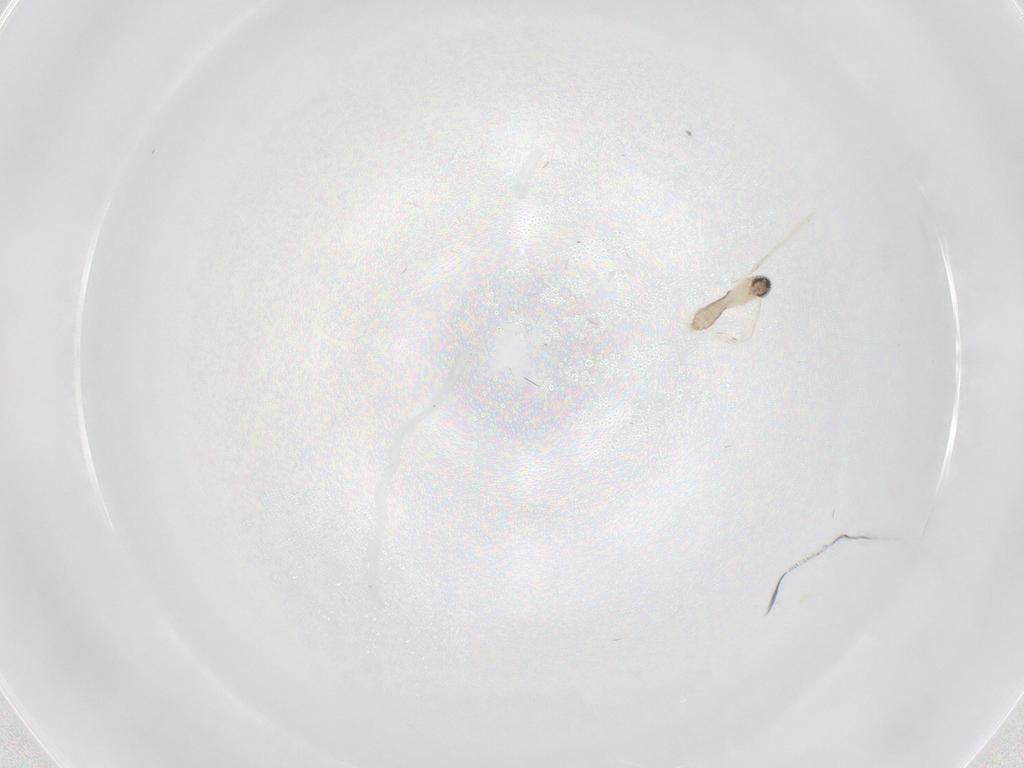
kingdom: Animalia
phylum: Arthropoda
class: Insecta
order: Diptera
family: Phoridae
